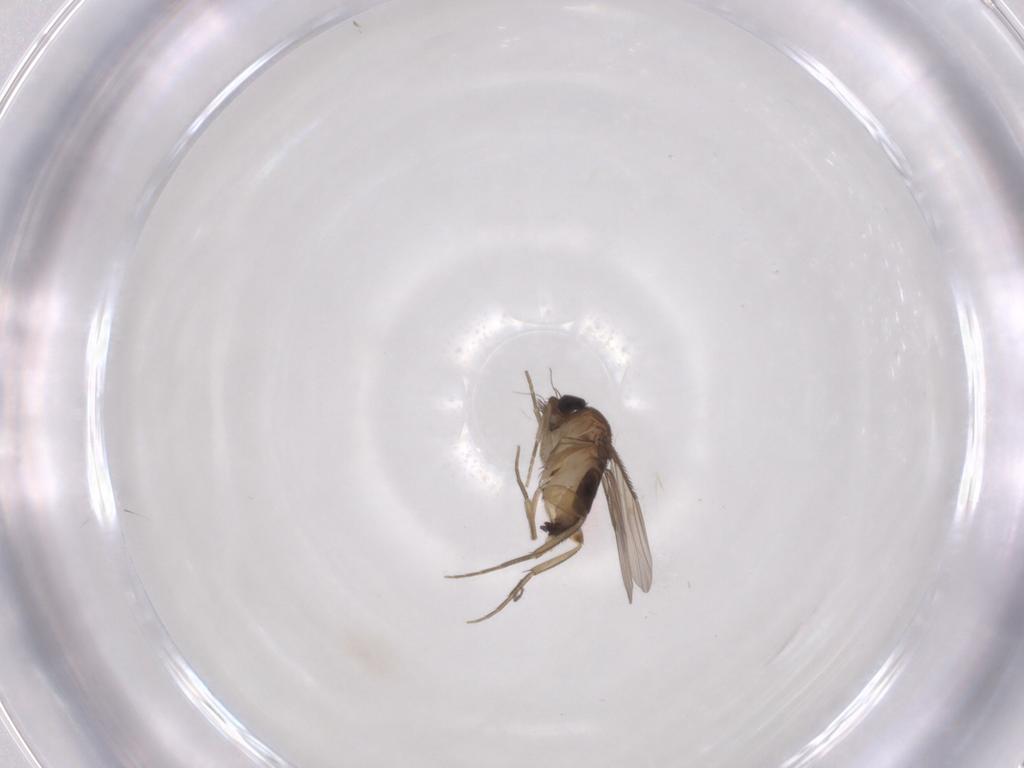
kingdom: Animalia
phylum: Arthropoda
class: Insecta
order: Diptera
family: Phoridae
